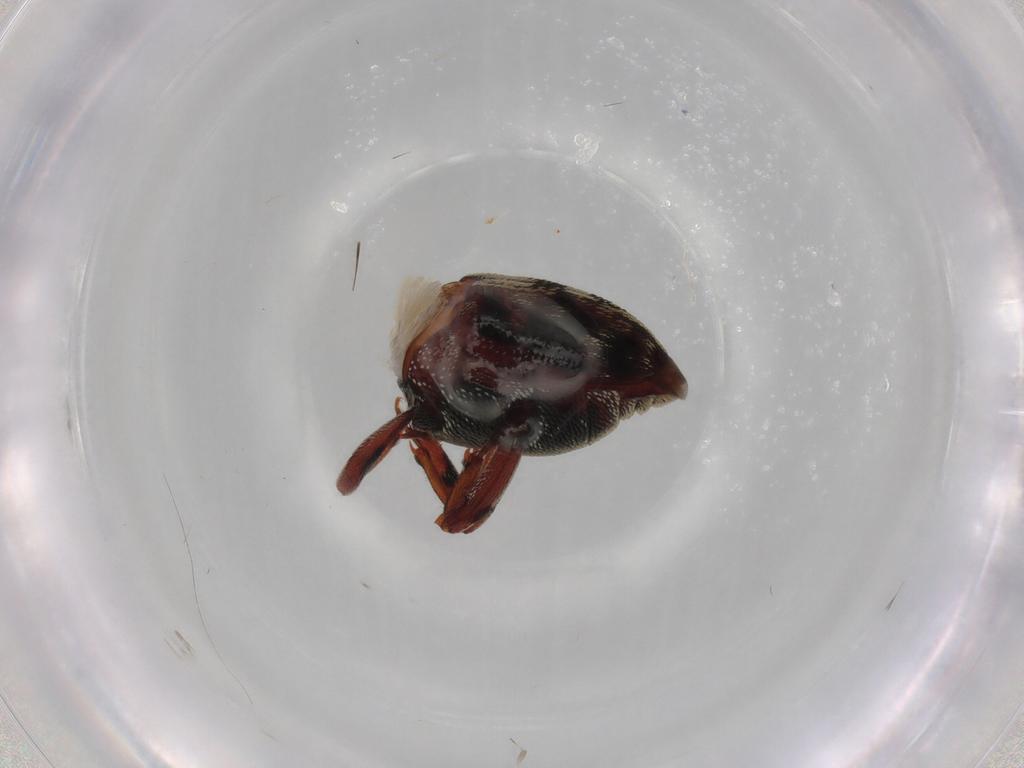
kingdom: Animalia
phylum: Arthropoda
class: Insecta
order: Coleoptera
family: Curculionidae
